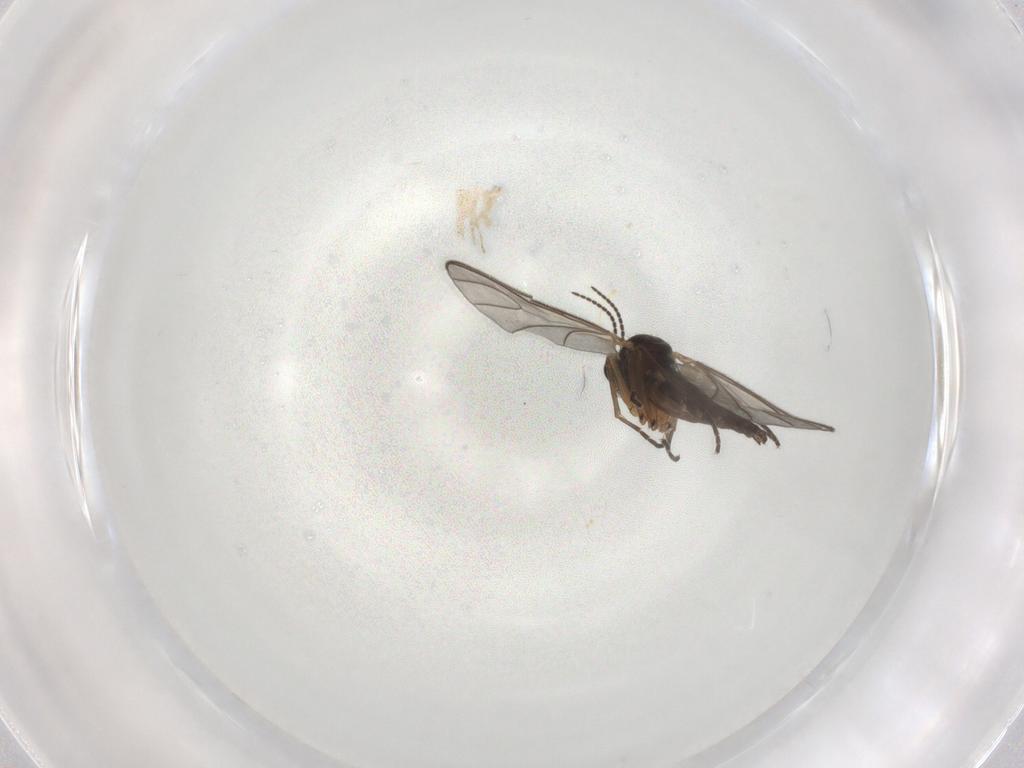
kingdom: Animalia
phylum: Arthropoda
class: Insecta
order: Diptera
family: Sciaridae
